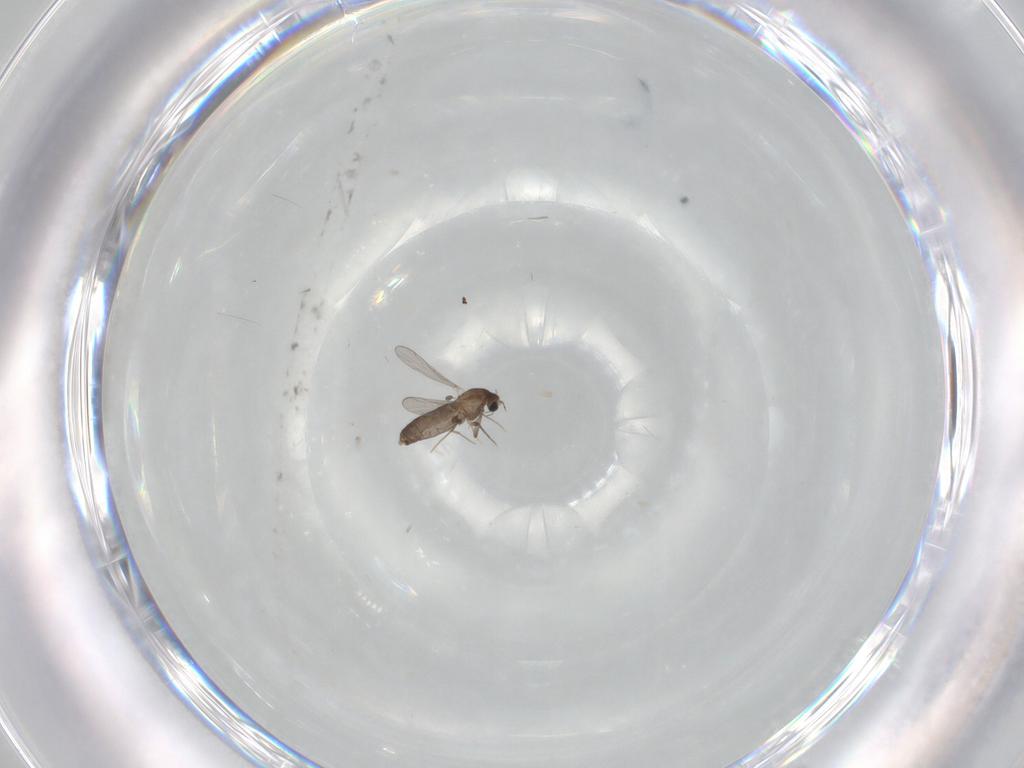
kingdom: Animalia
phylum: Arthropoda
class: Insecta
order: Diptera
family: Chironomidae
